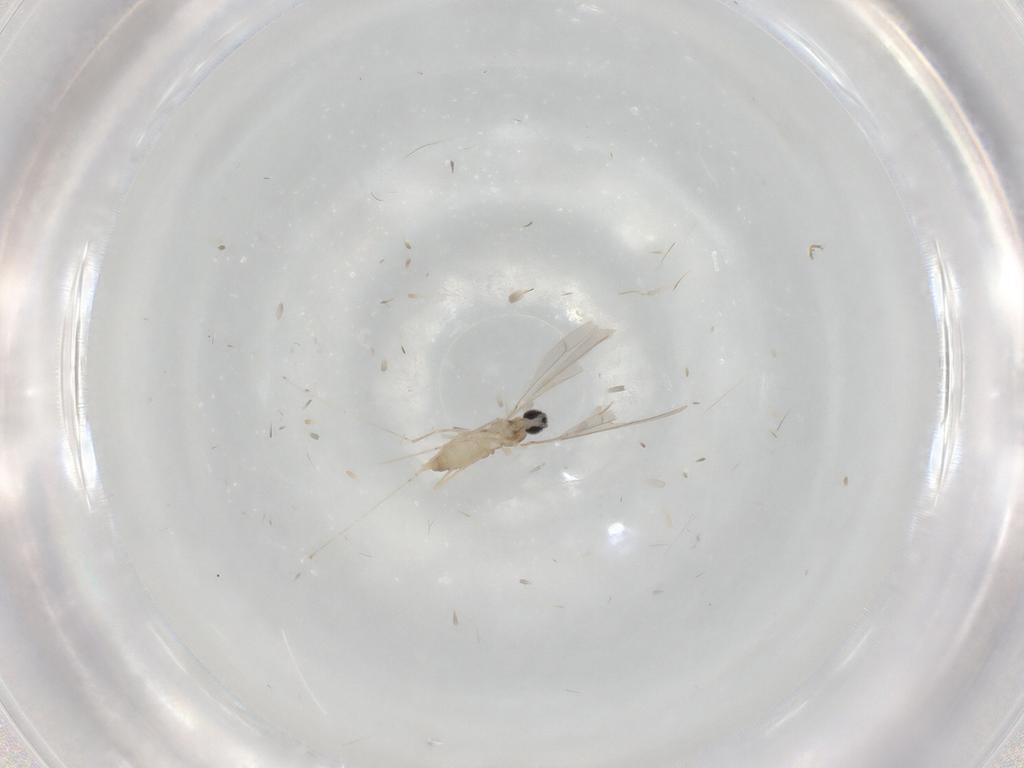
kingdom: Animalia
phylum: Arthropoda
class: Insecta
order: Diptera
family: Cecidomyiidae
